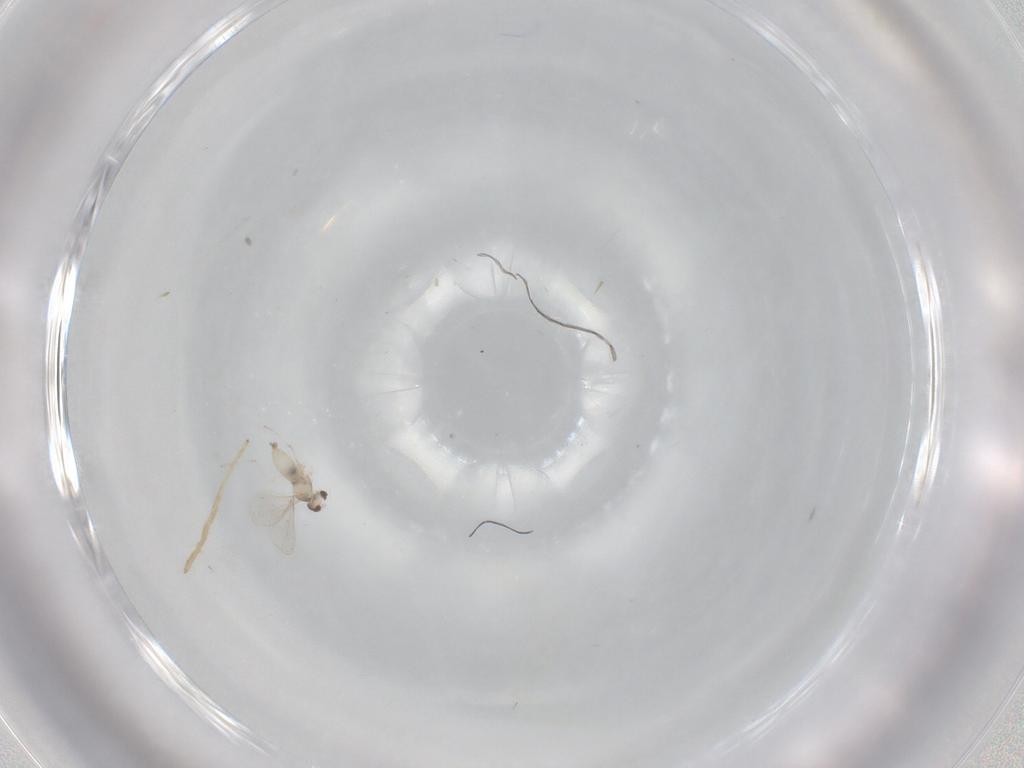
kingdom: Animalia
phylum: Arthropoda
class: Insecta
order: Diptera
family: Cecidomyiidae
